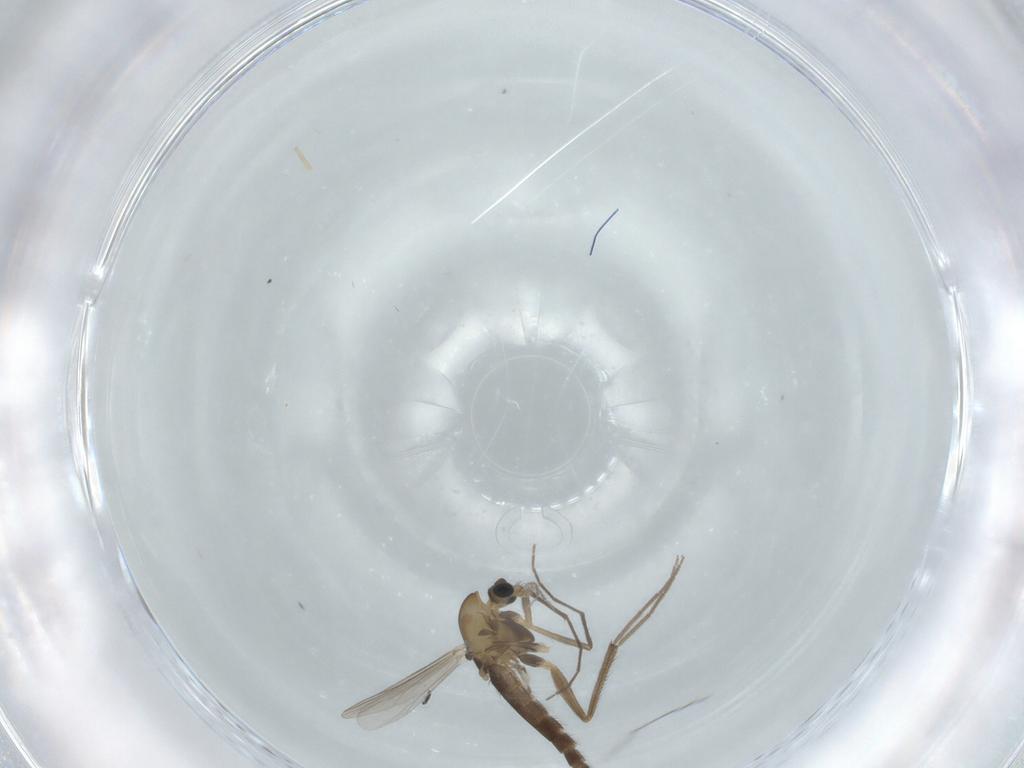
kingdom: Animalia
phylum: Arthropoda
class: Insecta
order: Diptera
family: Chironomidae
